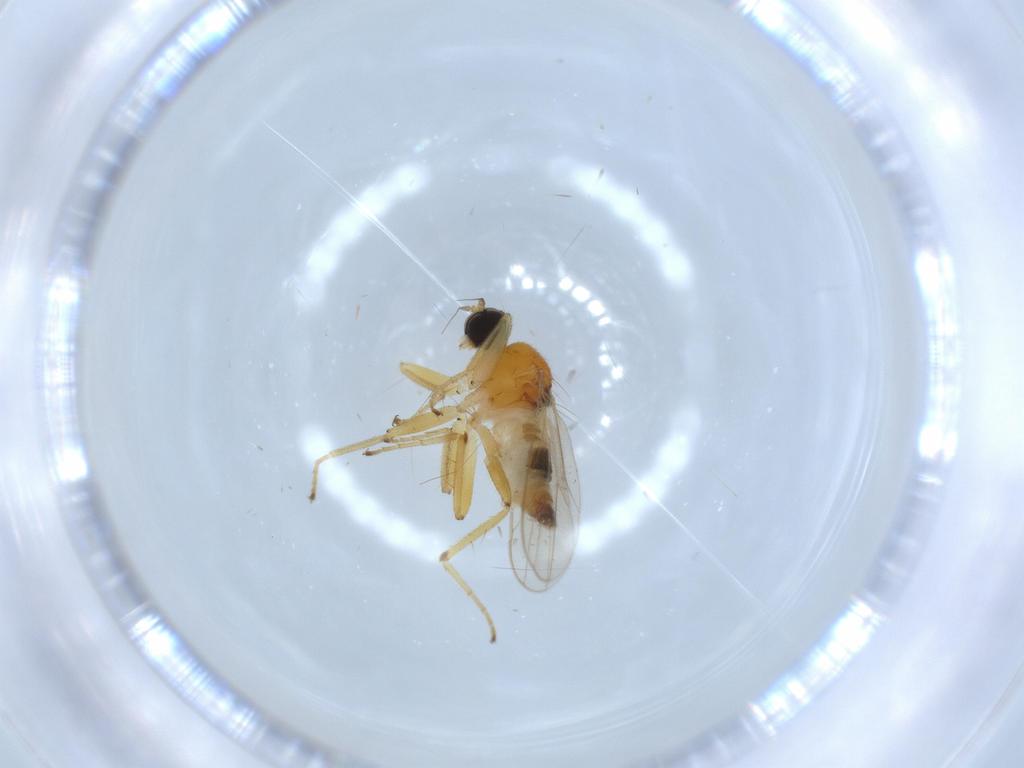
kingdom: Animalia
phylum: Arthropoda
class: Insecta
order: Diptera
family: Hybotidae
